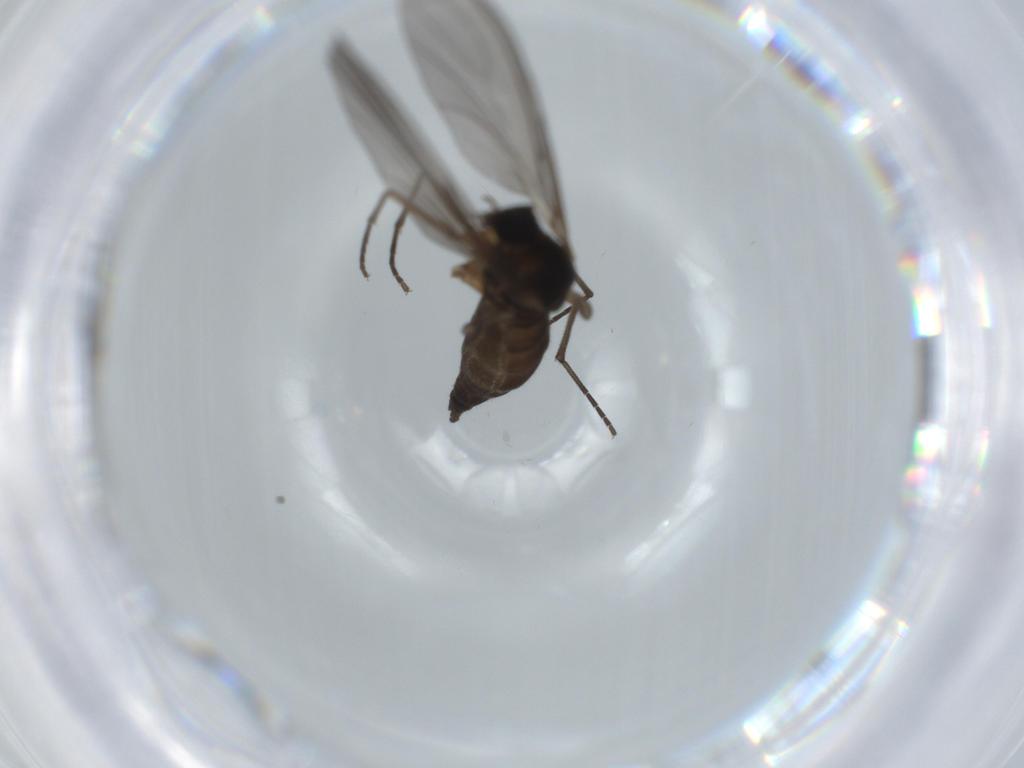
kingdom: Animalia
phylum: Arthropoda
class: Insecta
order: Diptera
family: Sciaridae
